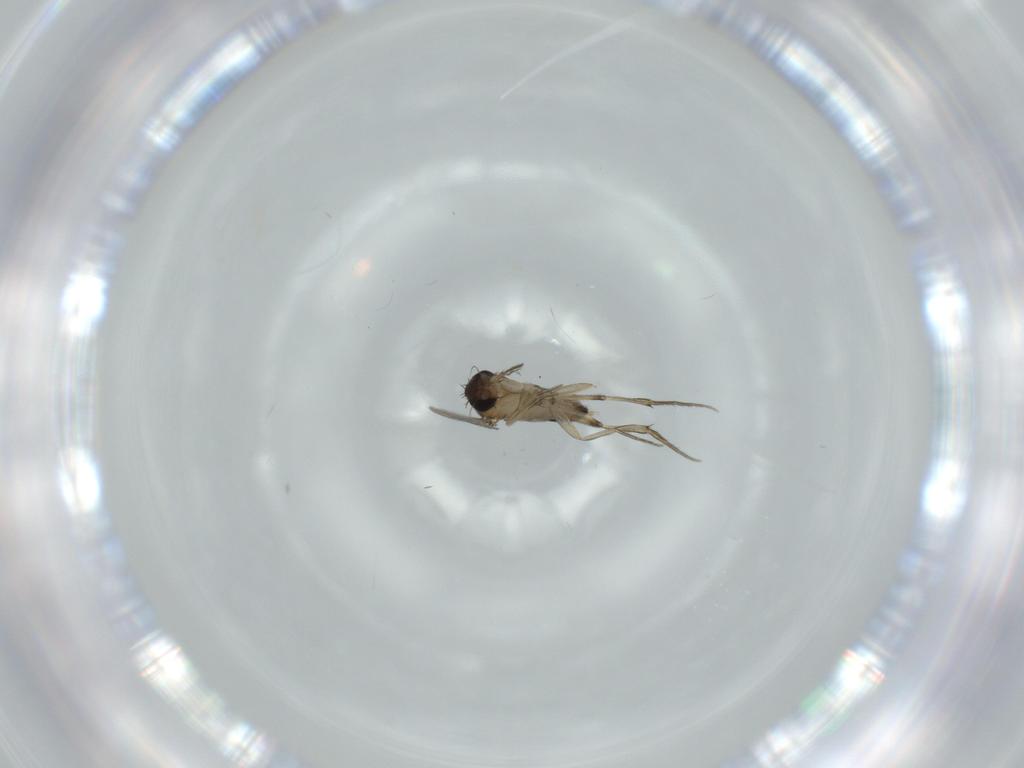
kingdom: Animalia
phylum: Arthropoda
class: Insecta
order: Diptera
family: Phoridae
